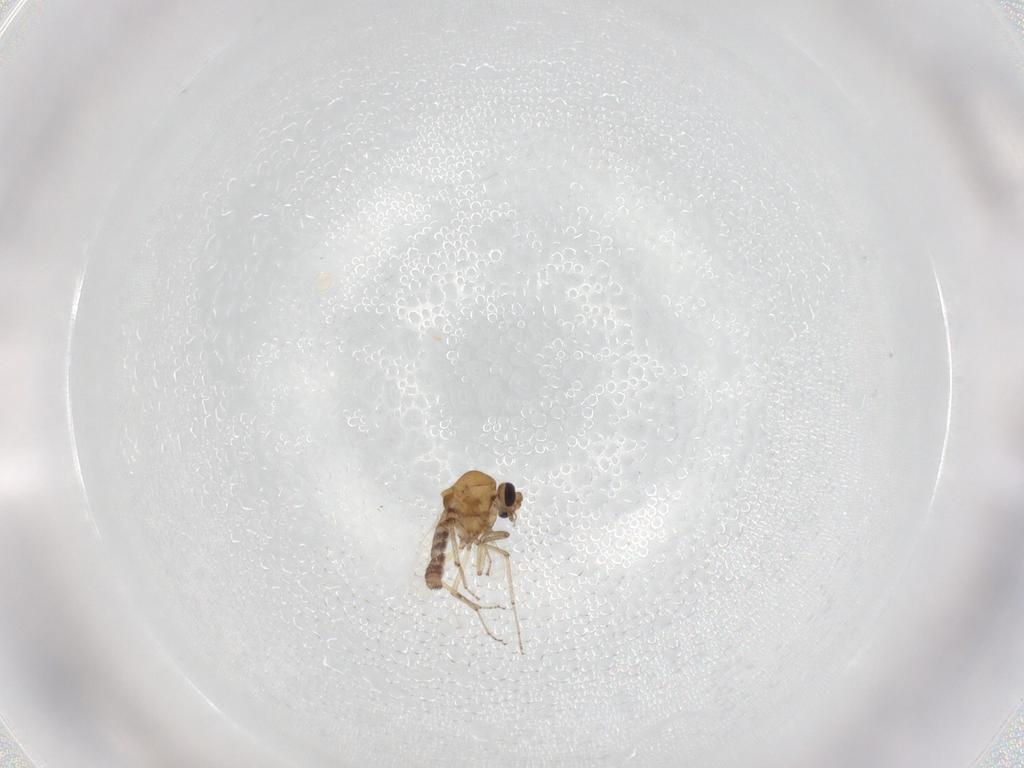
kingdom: Animalia
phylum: Arthropoda
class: Insecta
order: Diptera
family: Ceratopogonidae
